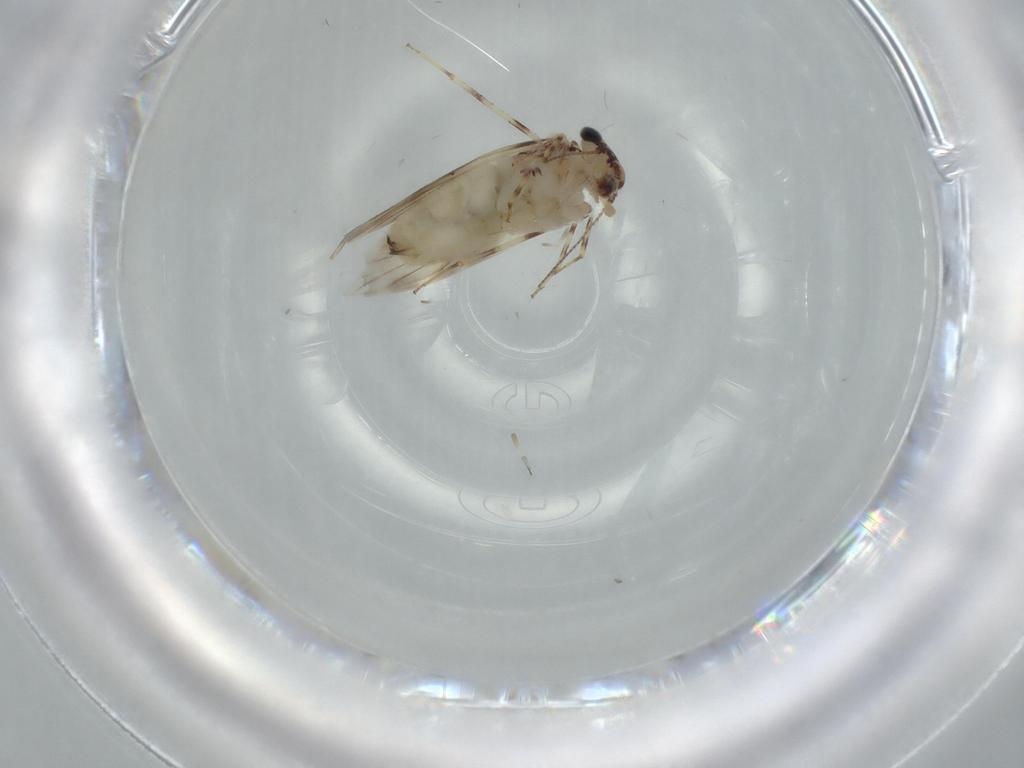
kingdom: Animalia
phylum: Arthropoda
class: Insecta
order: Psocodea
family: Lepidopsocidae
